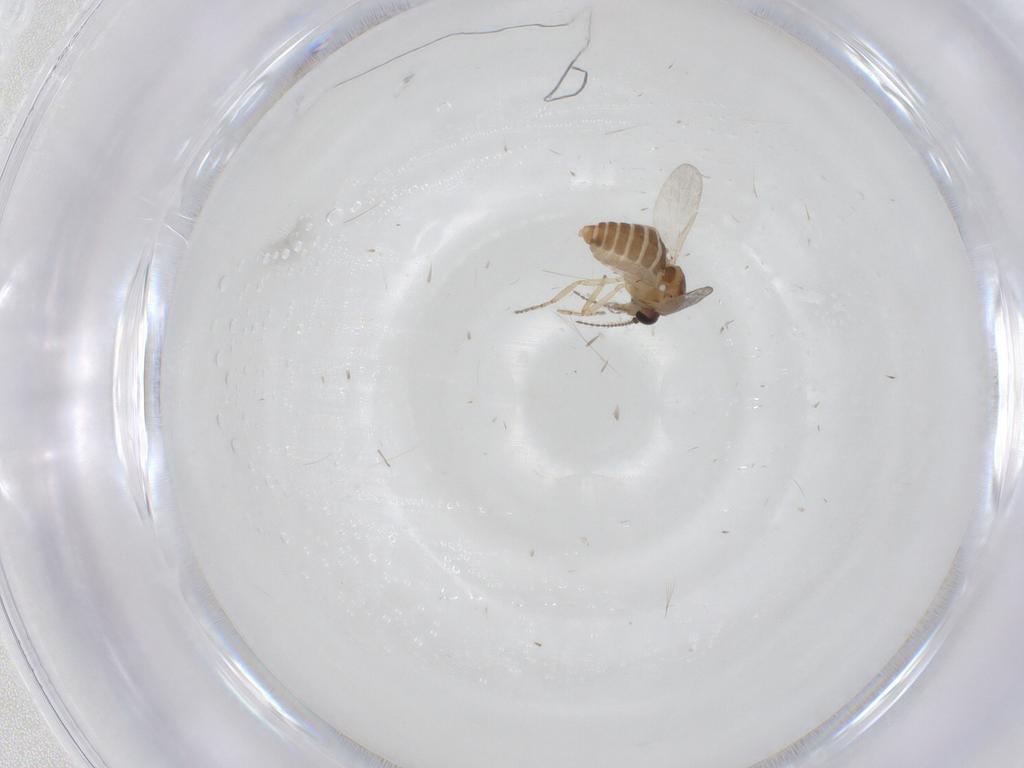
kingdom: Animalia
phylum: Arthropoda
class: Insecta
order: Diptera
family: Ceratopogonidae
